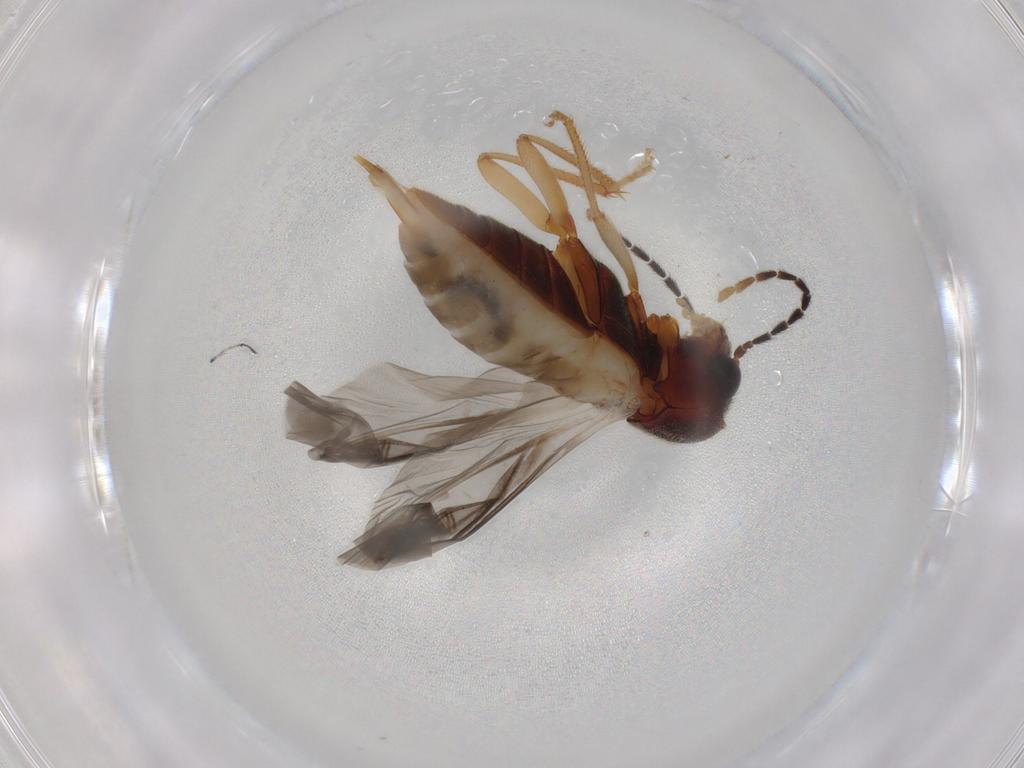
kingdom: Animalia
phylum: Arthropoda
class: Insecta
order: Coleoptera
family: Ptilodactylidae
